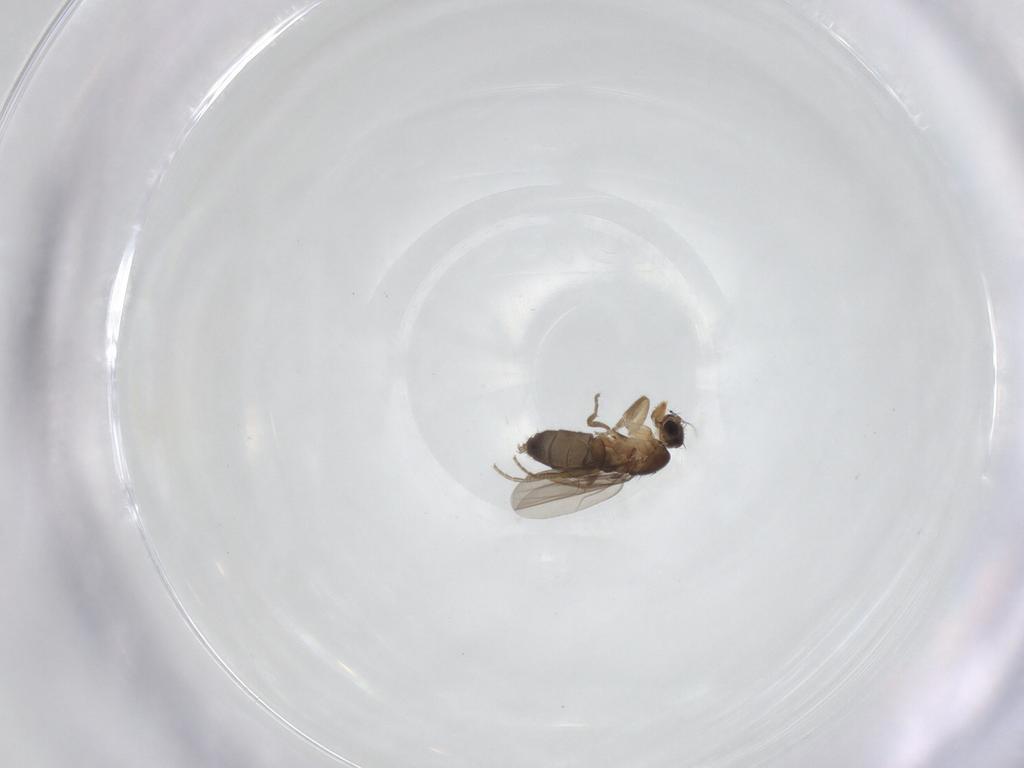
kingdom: Animalia
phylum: Arthropoda
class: Insecta
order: Diptera
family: Phoridae
